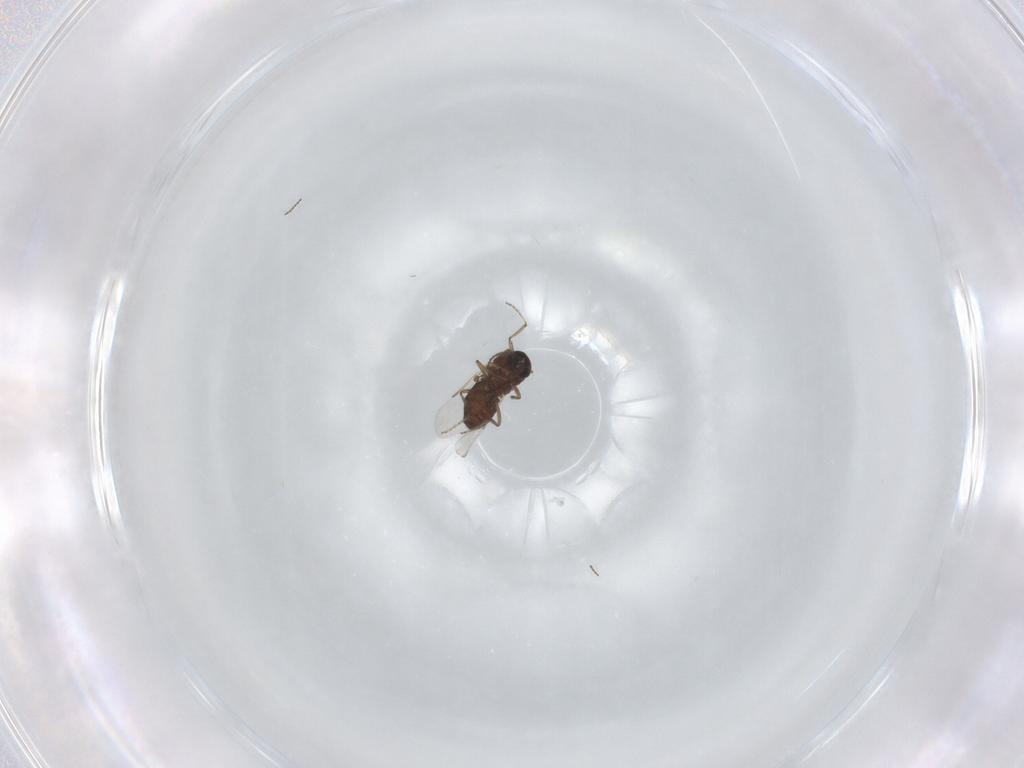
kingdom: Animalia
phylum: Arthropoda
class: Insecta
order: Diptera
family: Ceratopogonidae
